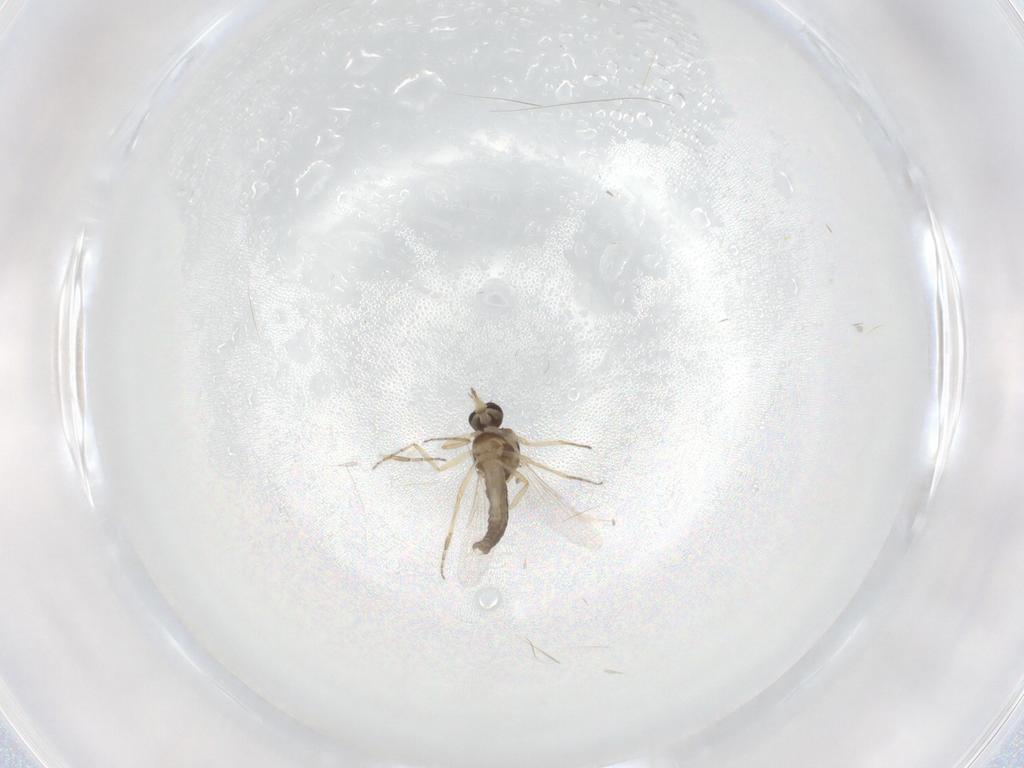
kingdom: Animalia
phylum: Arthropoda
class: Insecta
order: Diptera
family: Ceratopogonidae
